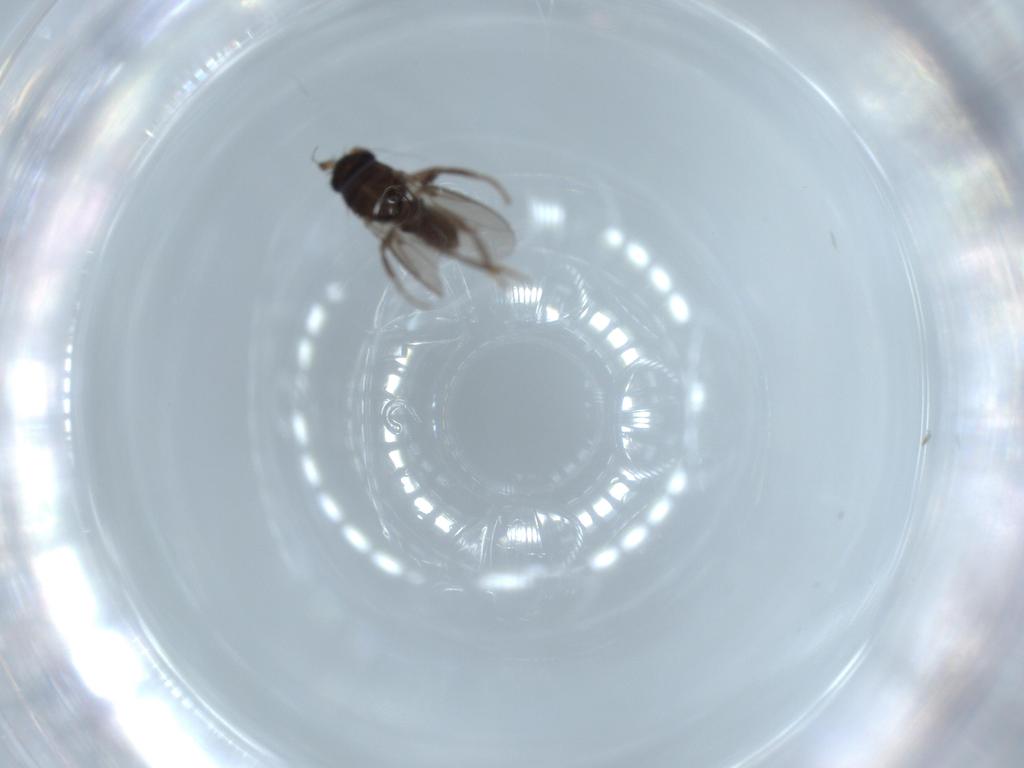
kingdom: Animalia
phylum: Arthropoda
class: Insecta
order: Diptera
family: Sphaeroceridae
